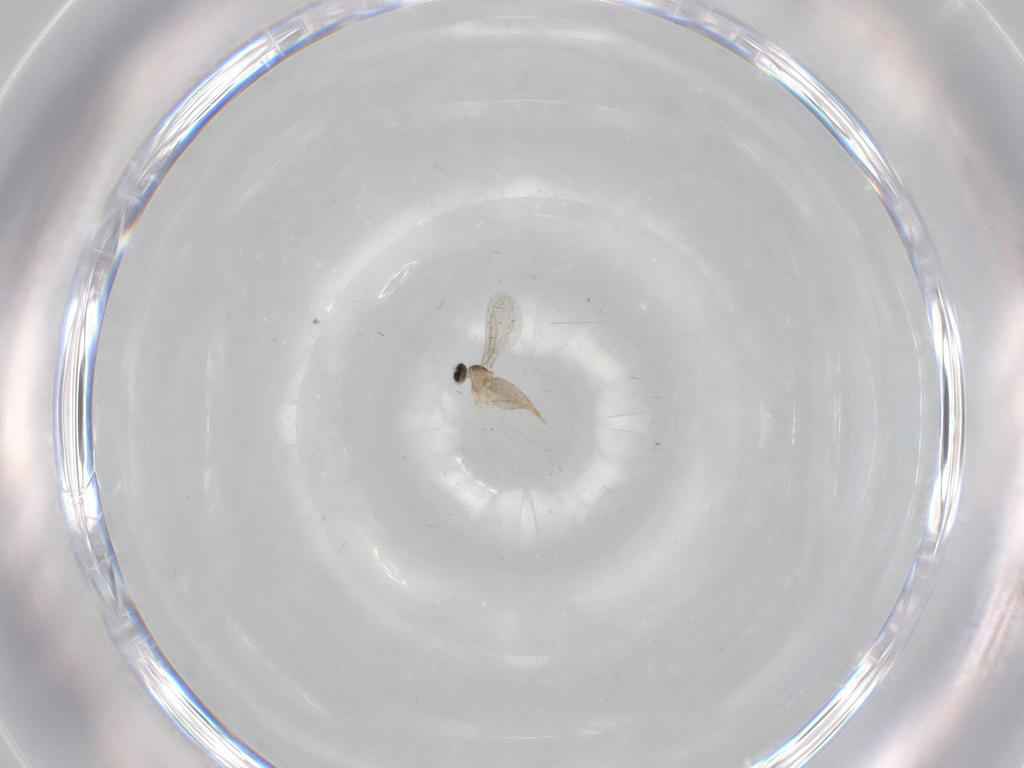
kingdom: Animalia
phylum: Arthropoda
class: Insecta
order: Diptera
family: Cecidomyiidae
